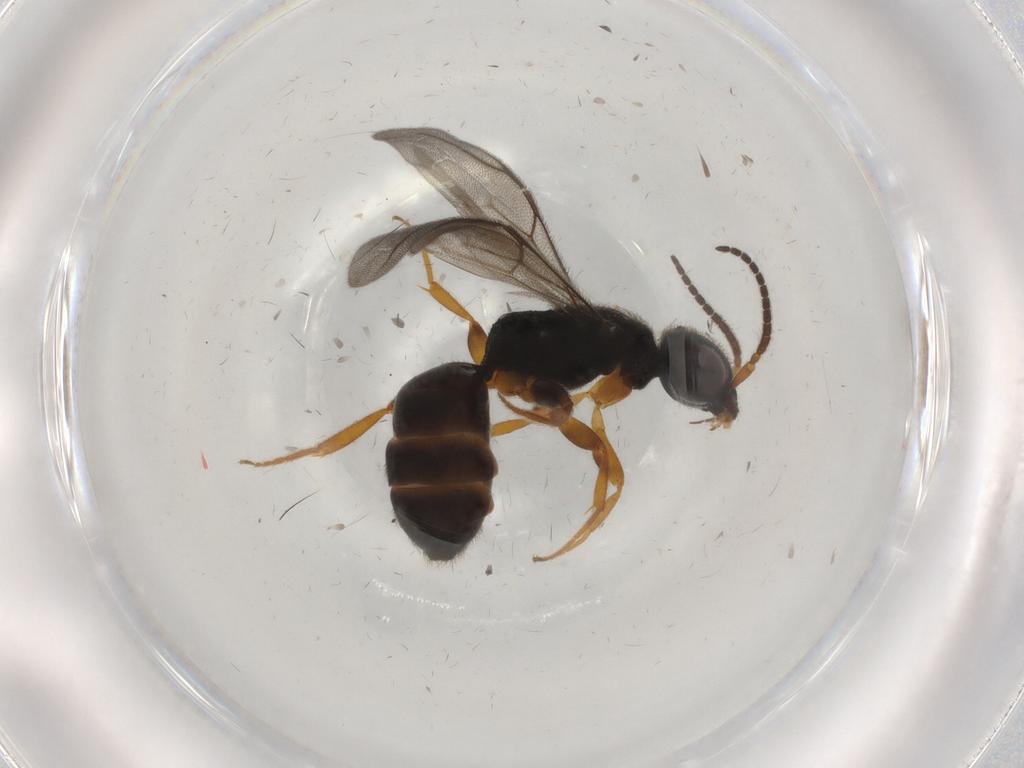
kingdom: Animalia
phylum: Arthropoda
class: Insecta
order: Hymenoptera
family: Bethylidae
